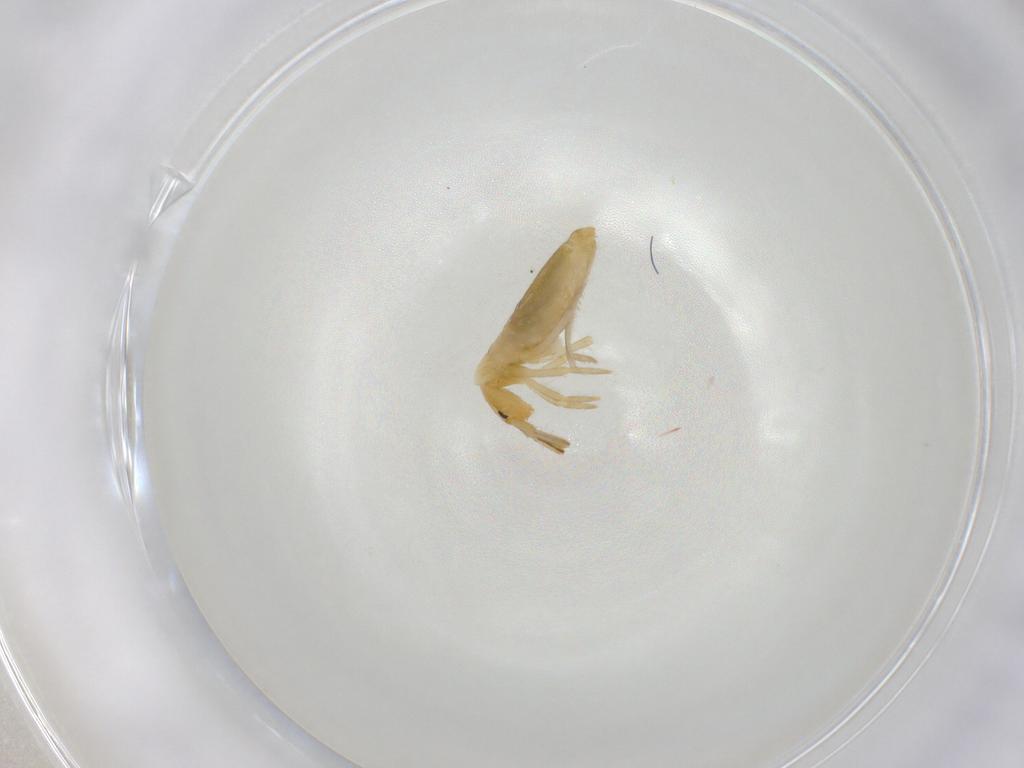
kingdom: Animalia
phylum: Arthropoda
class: Collembola
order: Entomobryomorpha
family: Entomobryidae
